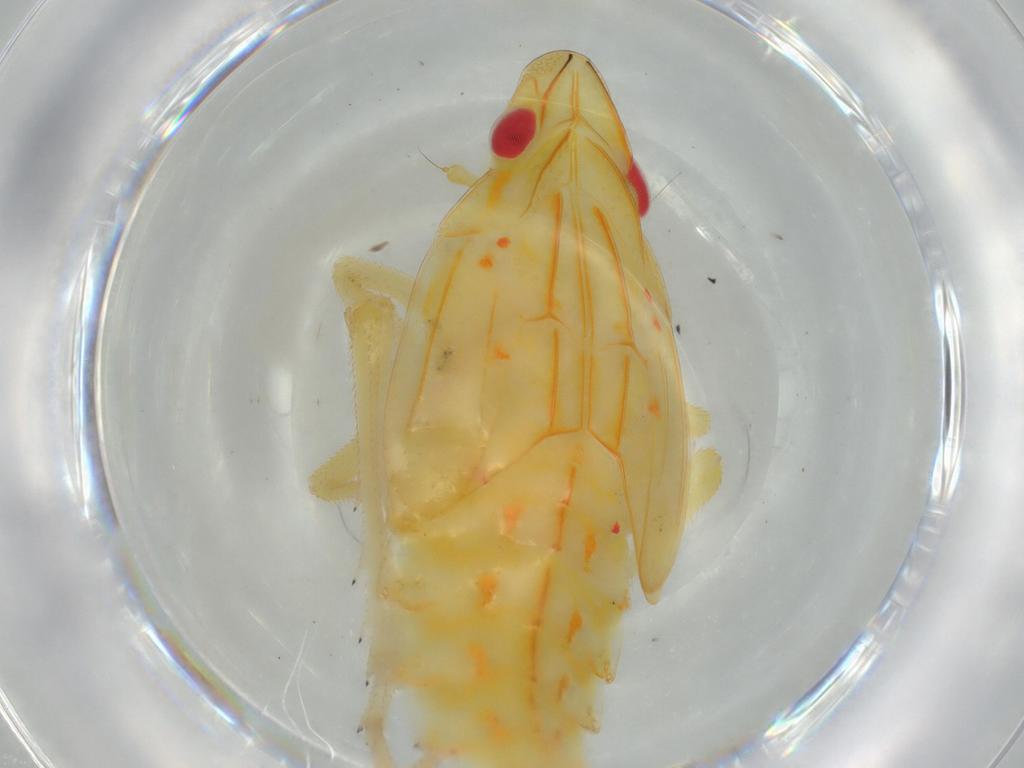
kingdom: Animalia
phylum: Arthropoda
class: Insecta
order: Hemiptera
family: Tropiduchidae
